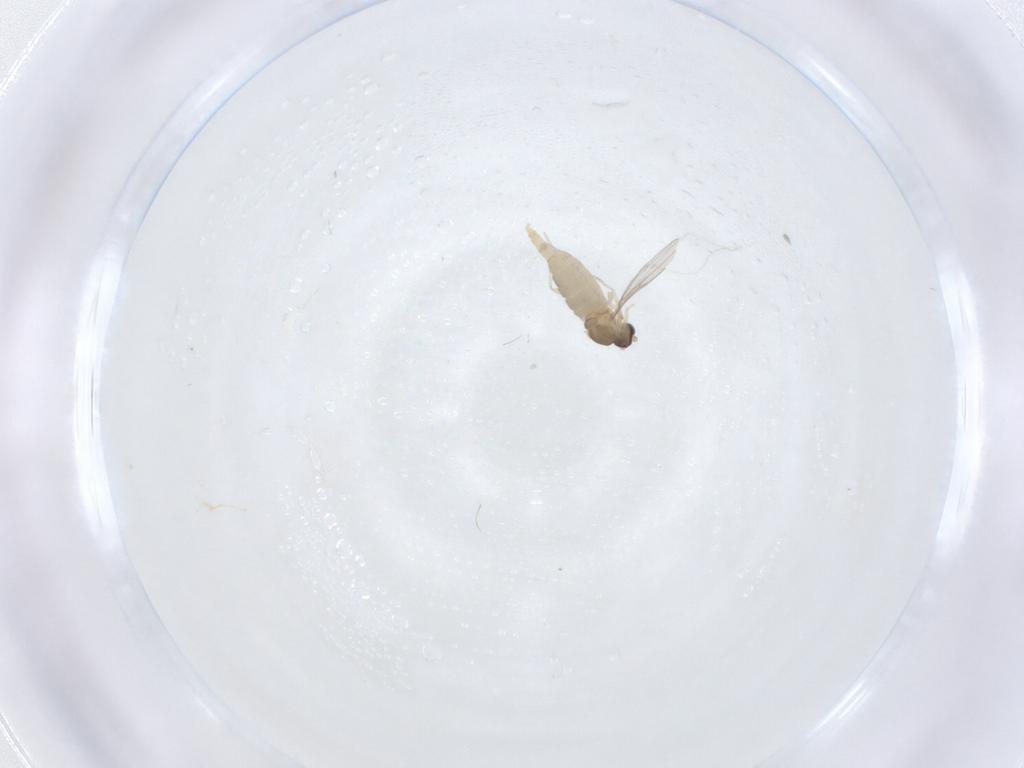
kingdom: Animalia
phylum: Arthropoda
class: Insecta
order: Diptera
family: Cecidomyiidae
